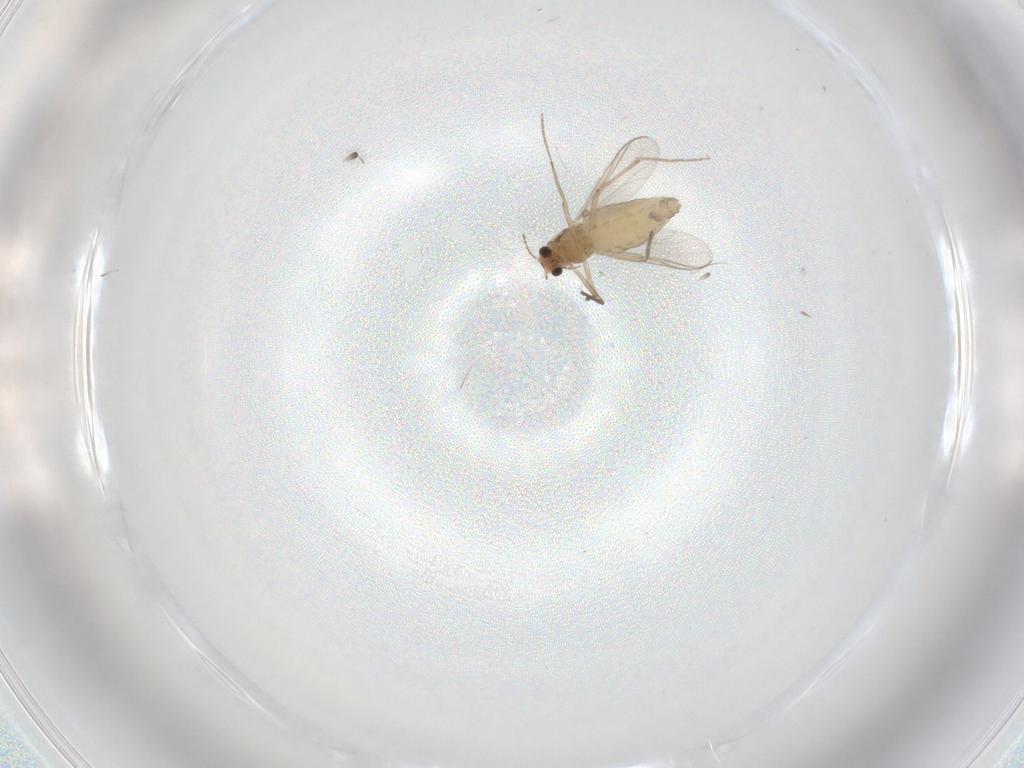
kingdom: Animalia
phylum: Arthropoda
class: Insecta
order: Diptera
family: Chironomidae
